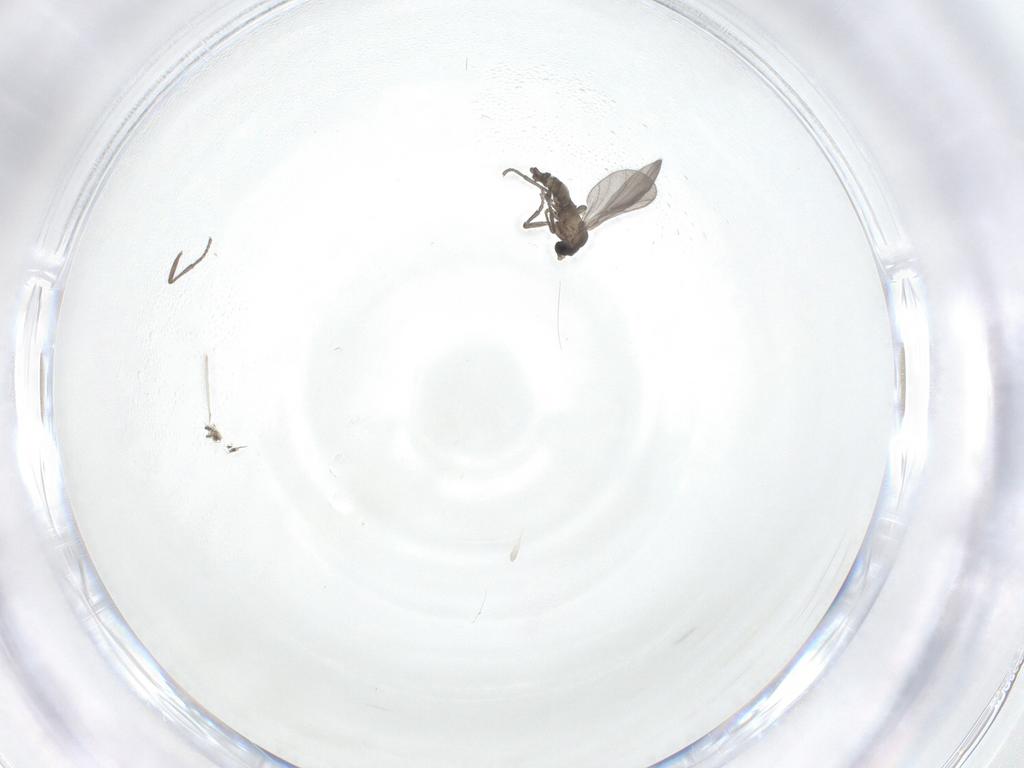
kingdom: Animalia
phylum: Arthropoda
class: Insecta
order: Diptera
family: Sciaridae
